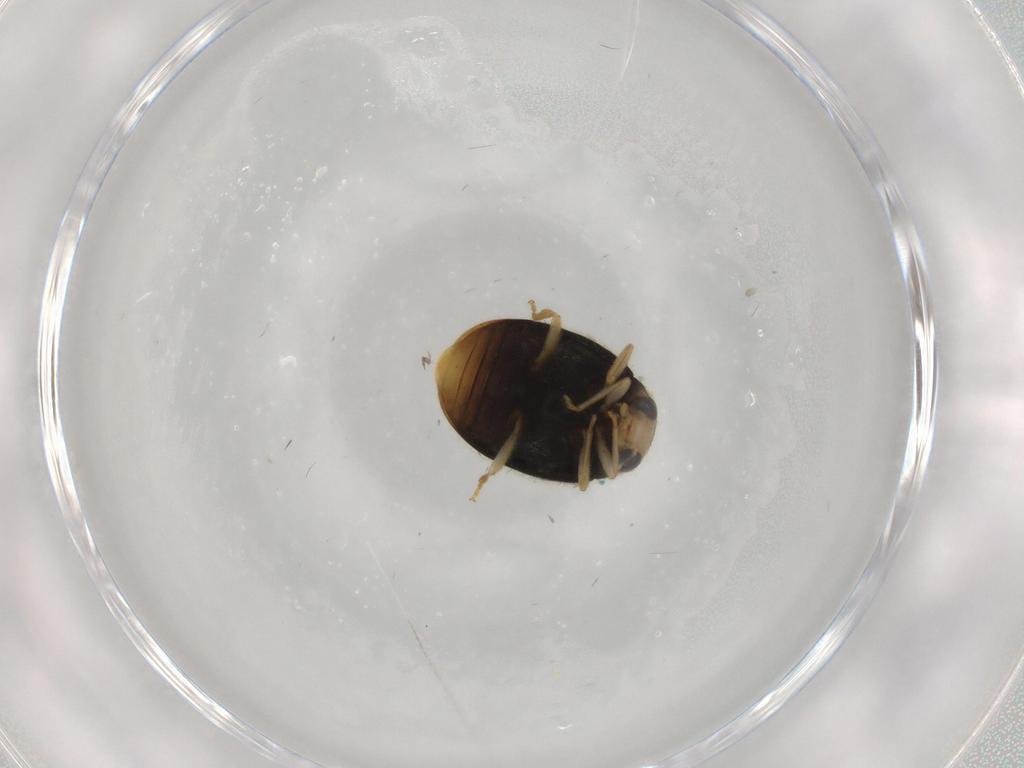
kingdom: Animalia
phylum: Arthropoda
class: Insecta
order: Coleoptera
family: Coccinellidae
